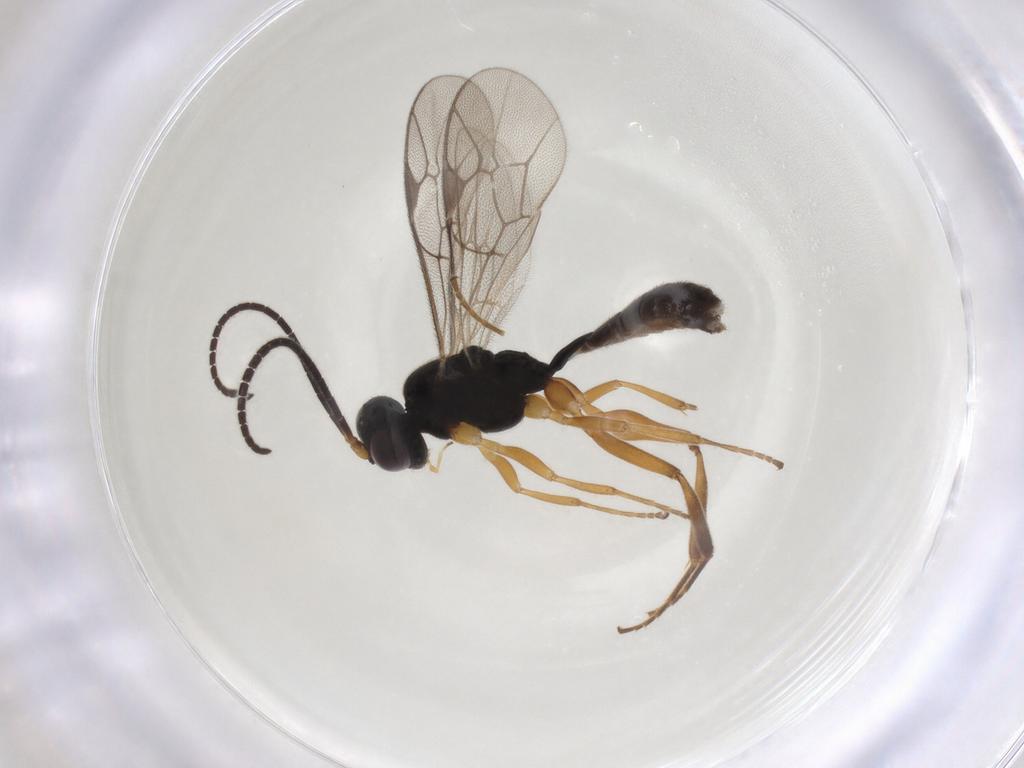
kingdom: Animalia
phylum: Arthropoda
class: Insecta
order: Hymenoptera
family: Ichneumonidae
